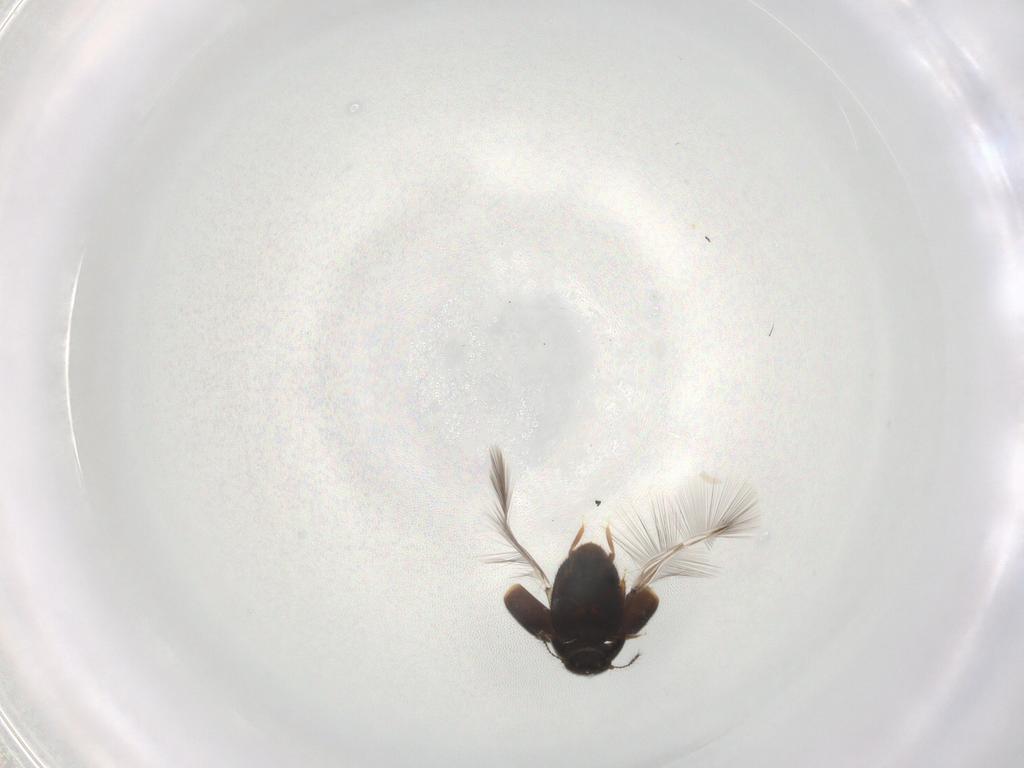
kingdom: Animalia
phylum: Arthropoda
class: Insecta
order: Coleoptera
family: Ptiliidae
